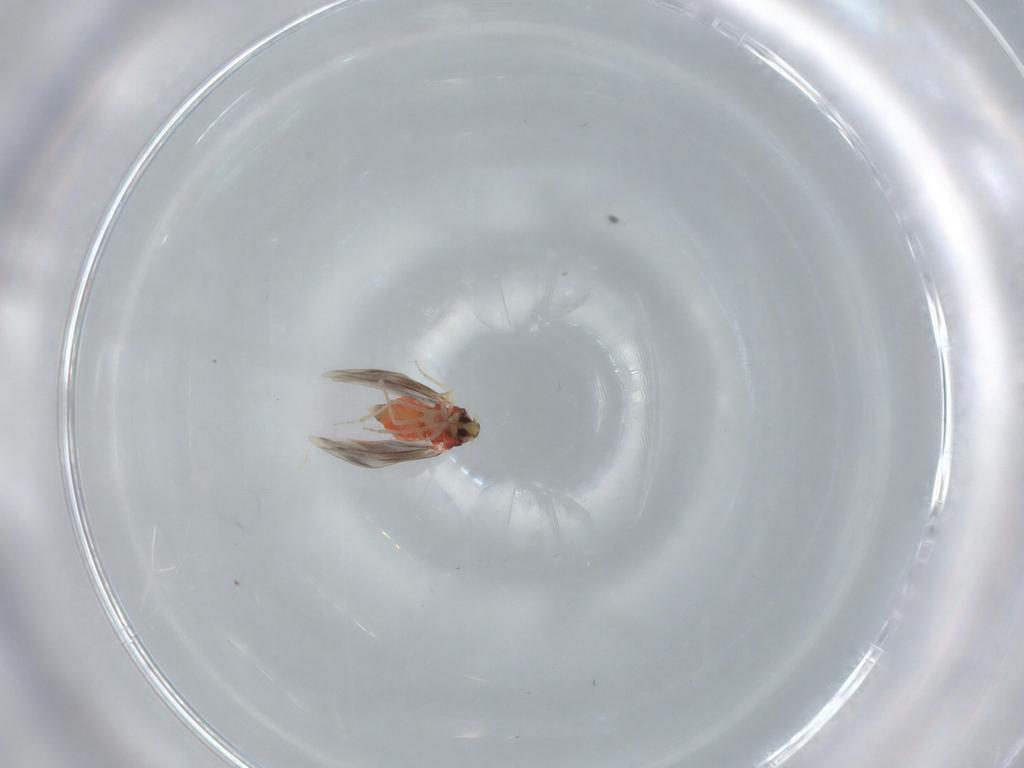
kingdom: Animalia
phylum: Arthropoda
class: Insecta
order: Hemiptera
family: Aleyrodidae
